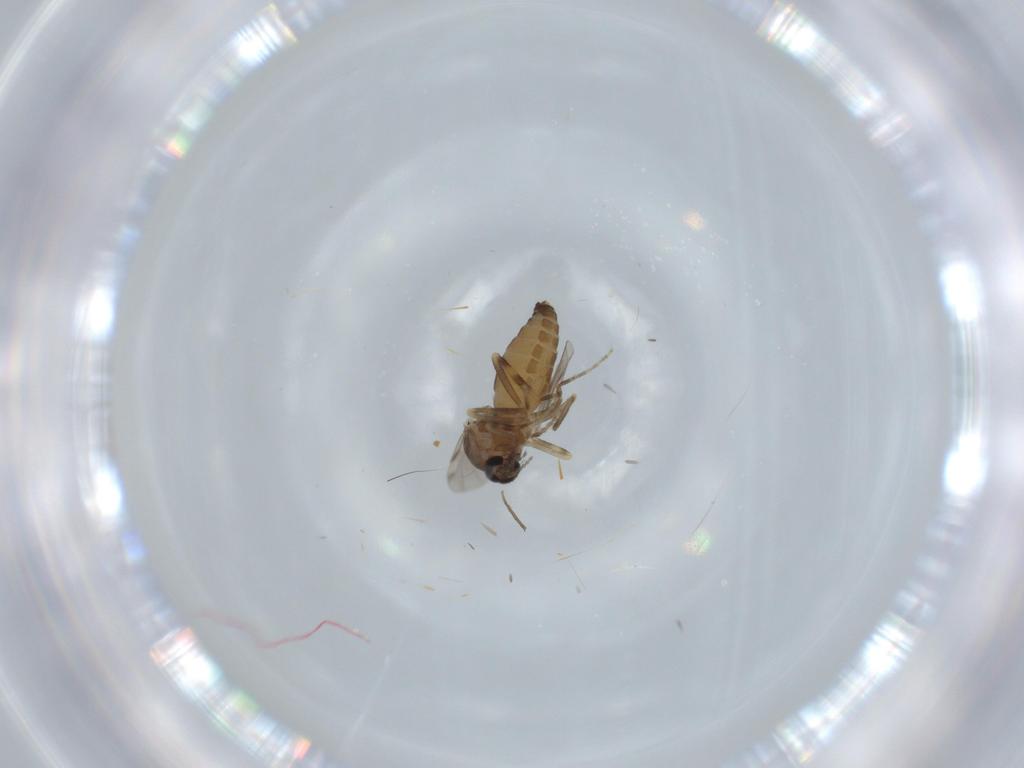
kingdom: Animalia
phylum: Arthropoda
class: Insecta
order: Diptera
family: Ceratopogonidae
